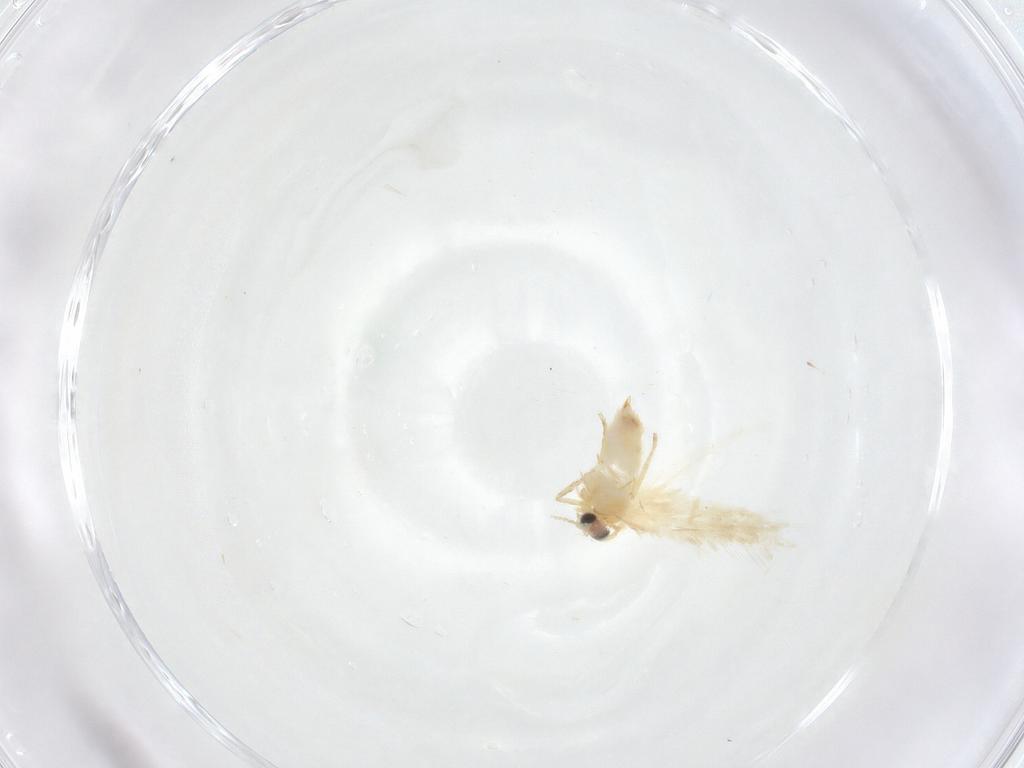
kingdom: Animalia
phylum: Arthropoda
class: Insecta
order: Lepidoptera
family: Nepticulidae
